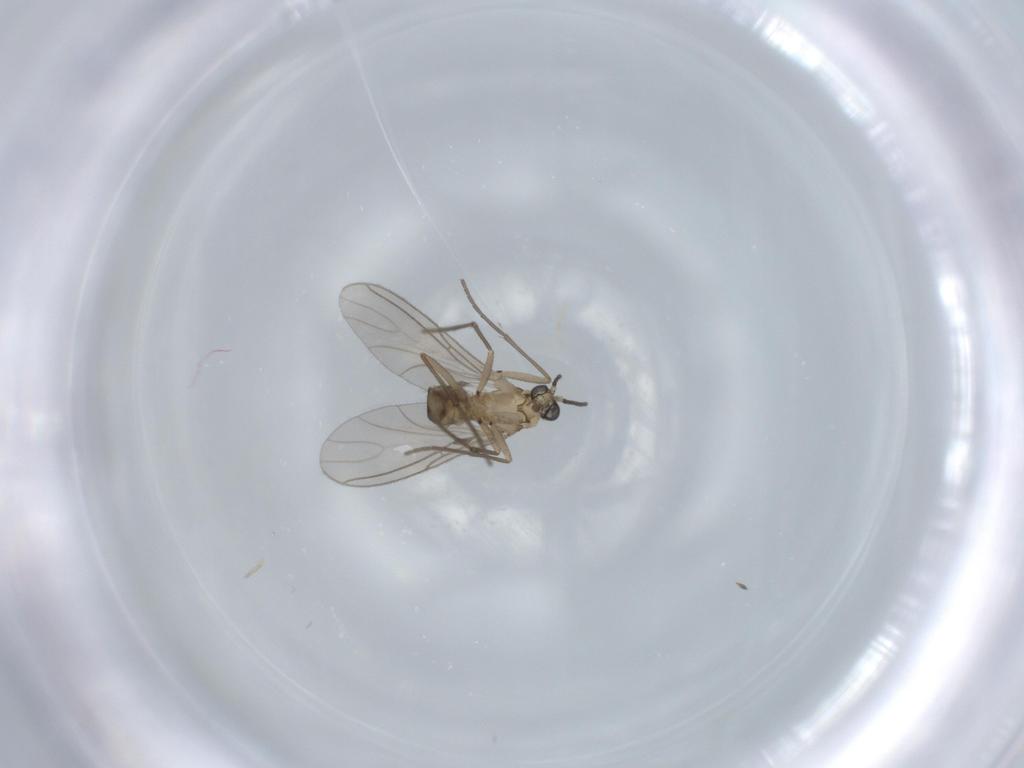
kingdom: Animalia
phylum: Arthropoda
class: Insecta
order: Diptera
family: Sciaridae
